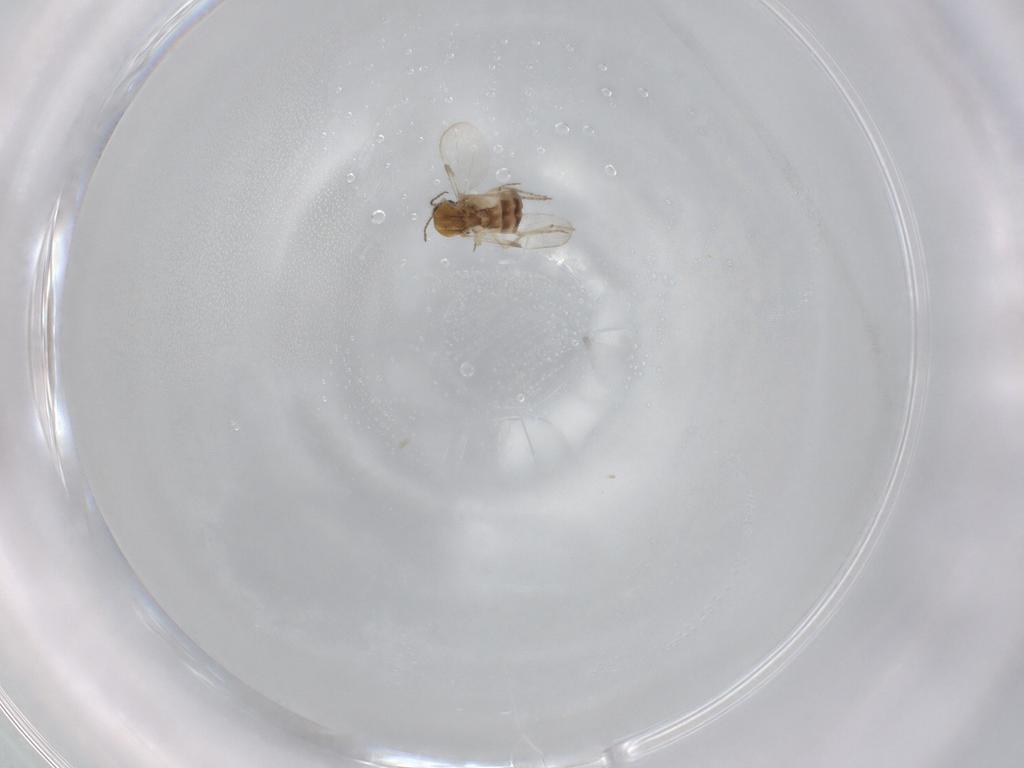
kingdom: Animalia
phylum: Arthropoda
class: Insecta
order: Diptera
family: Ceratopogonidae
